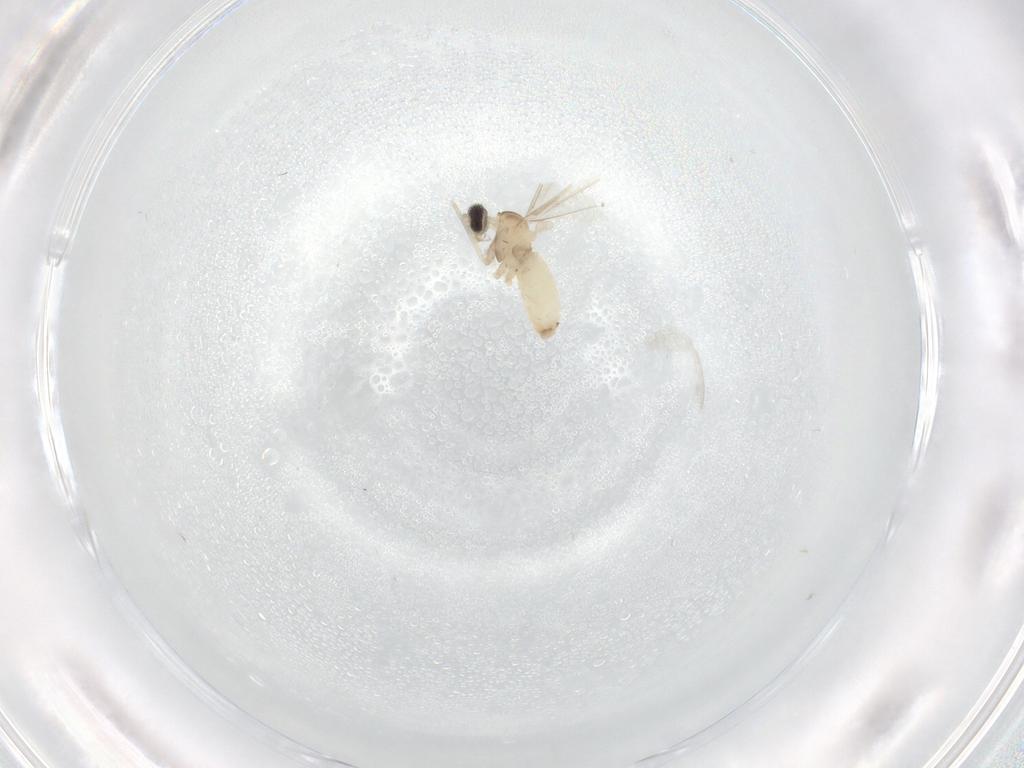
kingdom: Animalia
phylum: Arthropoda
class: Insecta
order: Diptera
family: Cecidomyiidae
